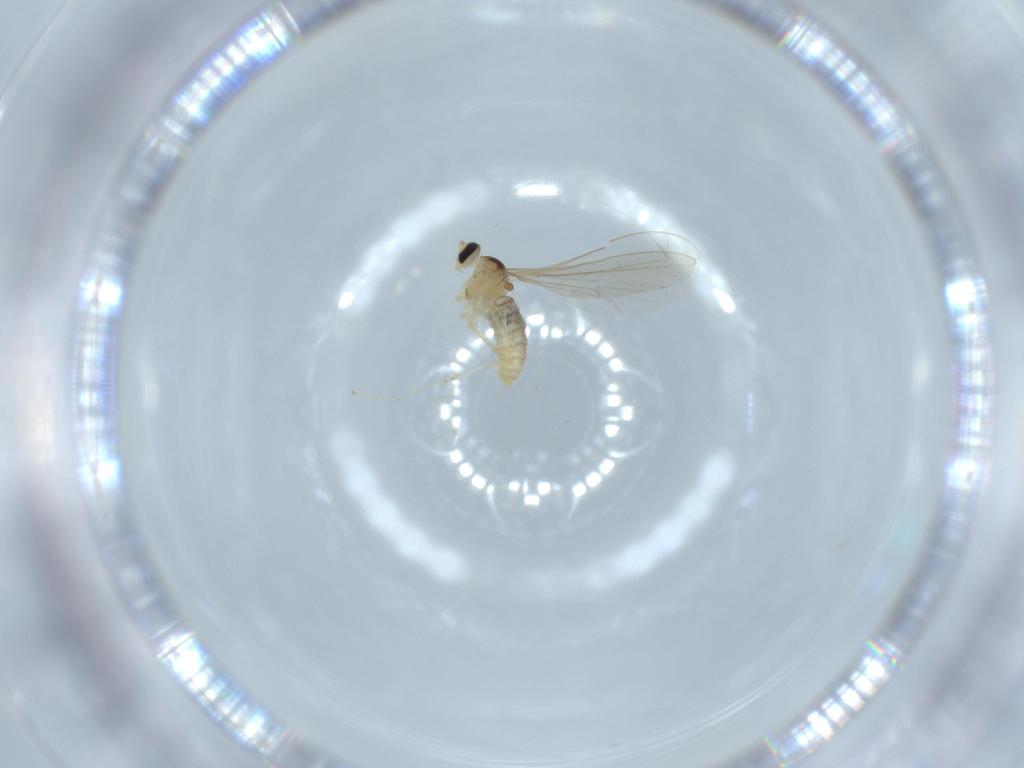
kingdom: Animalia
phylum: Arthropoda
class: Insecta
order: Diptera
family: Cecidomyiidae
